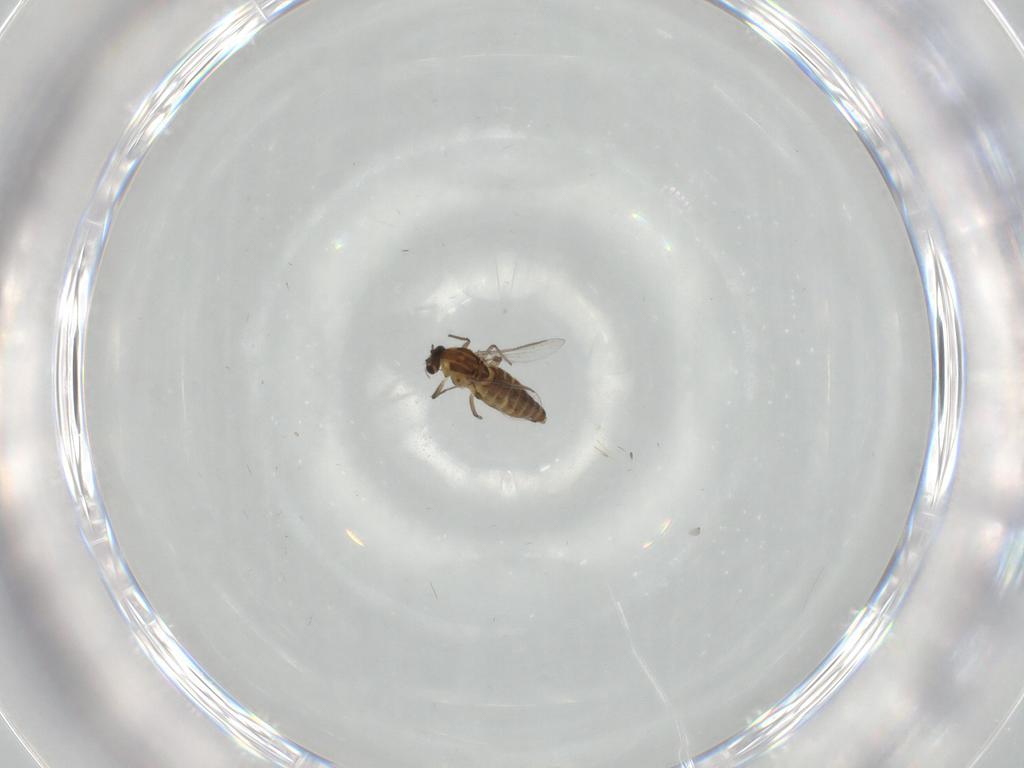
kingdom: Animalia
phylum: Arthropoda
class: Insecta
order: Diptera
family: Chironomidae
